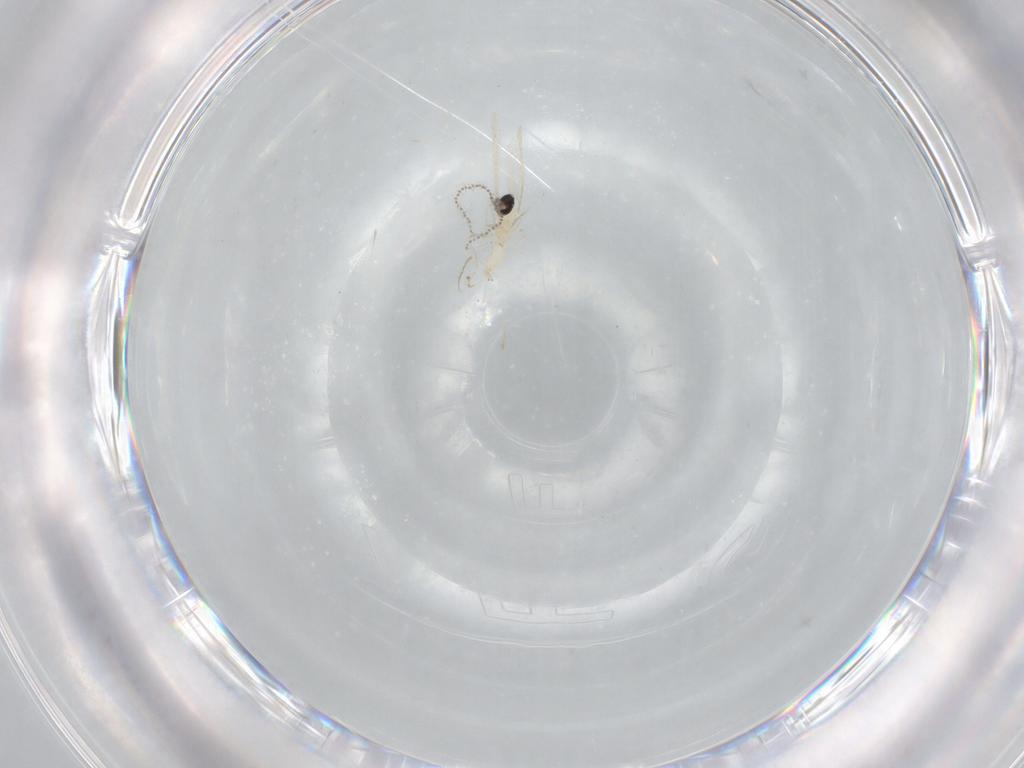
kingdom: Animalia
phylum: Arthropoda
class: Insecta
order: Diptera
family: Cecidomyiidae
